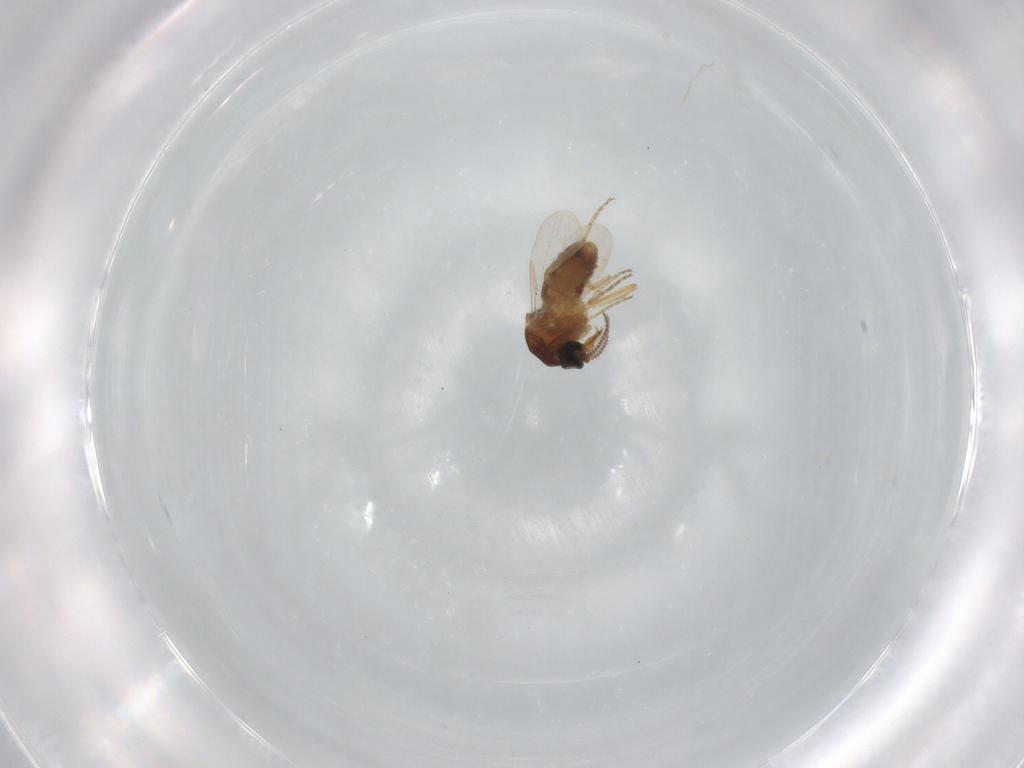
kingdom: Animalia
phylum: Arthropoda
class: Insecta
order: Diptera
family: Ceratopogonidae
